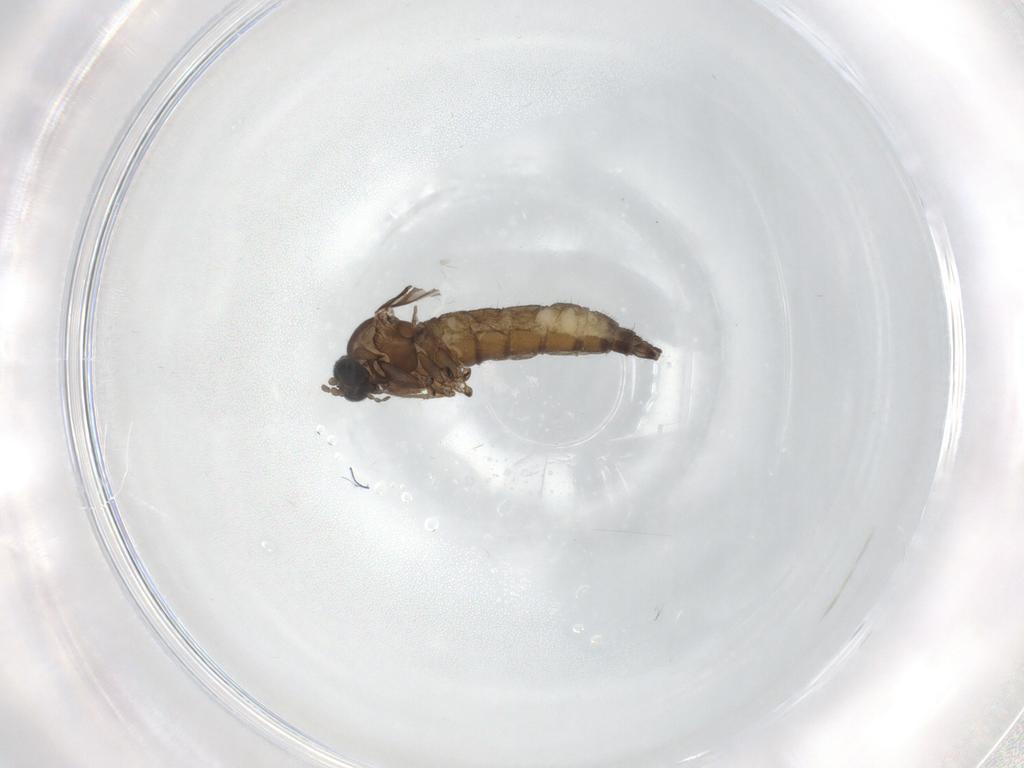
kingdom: Animalia
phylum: Arthropoda
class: Insecta
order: Diptera
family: Sciaridae
